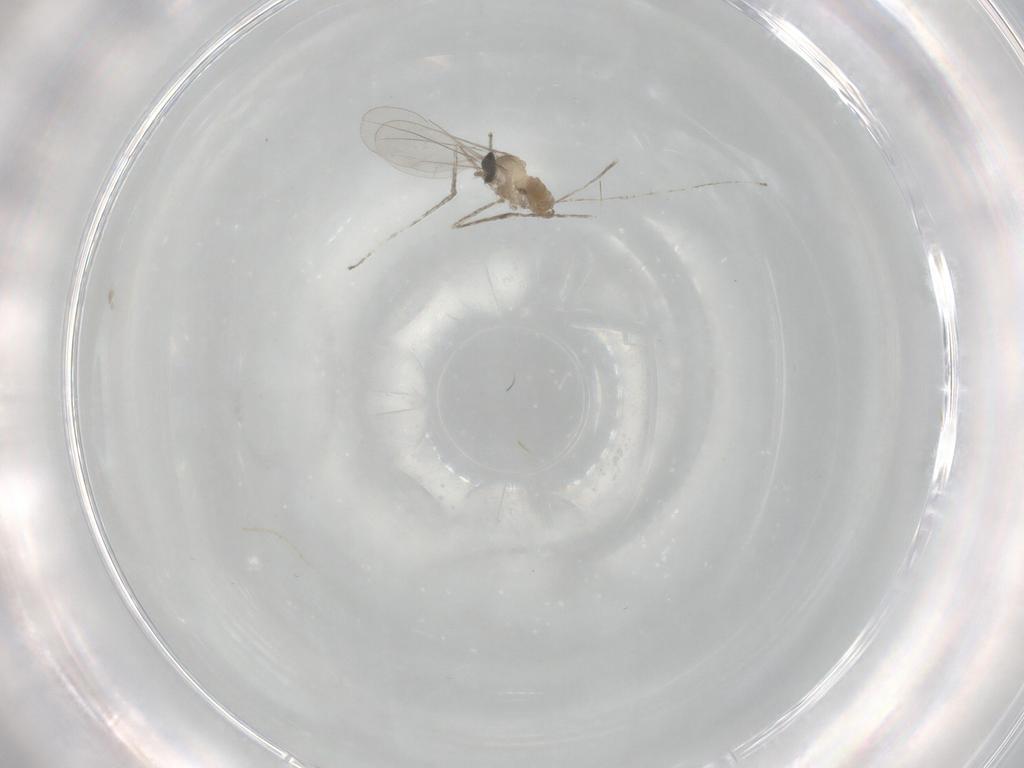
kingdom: Animalia
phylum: Arthropoda
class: Insecta
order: Diptera
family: Cecidomyiidae
